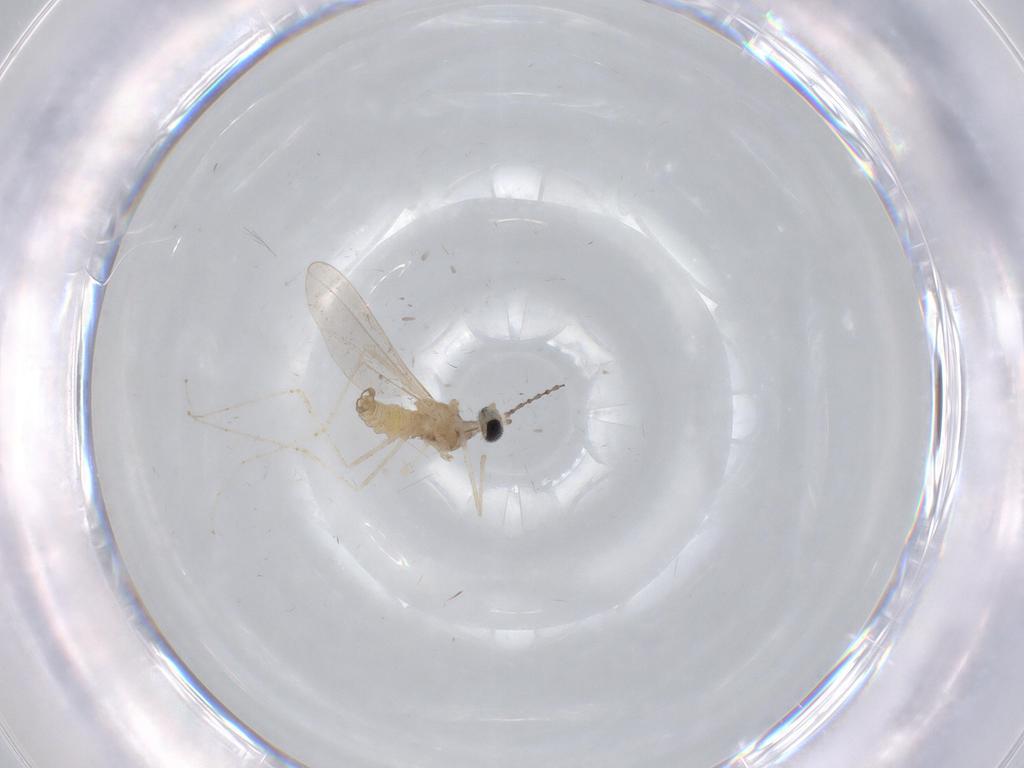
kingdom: Animalia
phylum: Arthropoda
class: Insecta
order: Diptera
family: Cecidomyiidae
